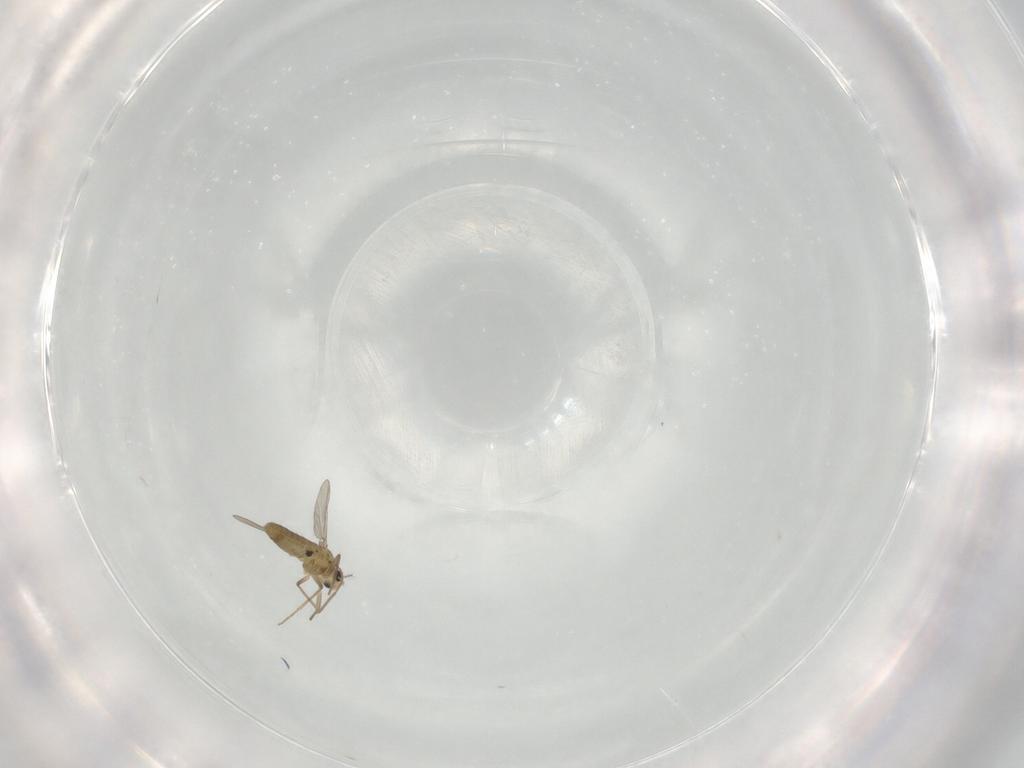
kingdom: Animalia
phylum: Arthropoda
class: Insecta
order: Diptera
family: Chironomidae
